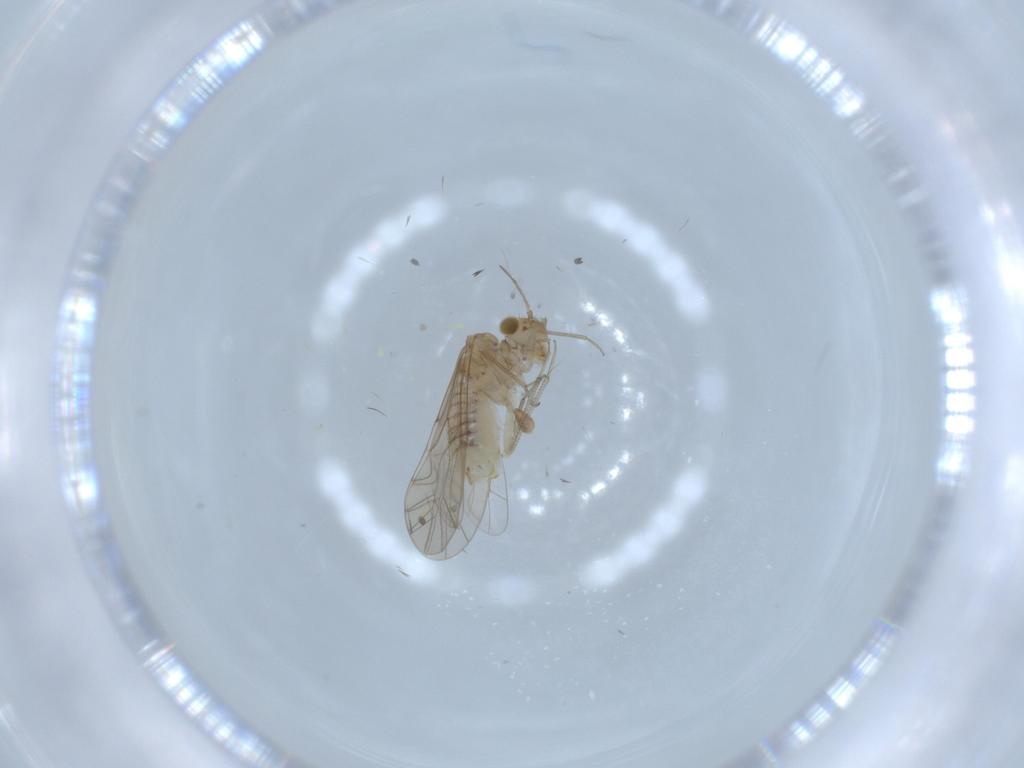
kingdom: Animalia
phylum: Arthropoda
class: Insecta
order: Psocodea
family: Lachesillidae
